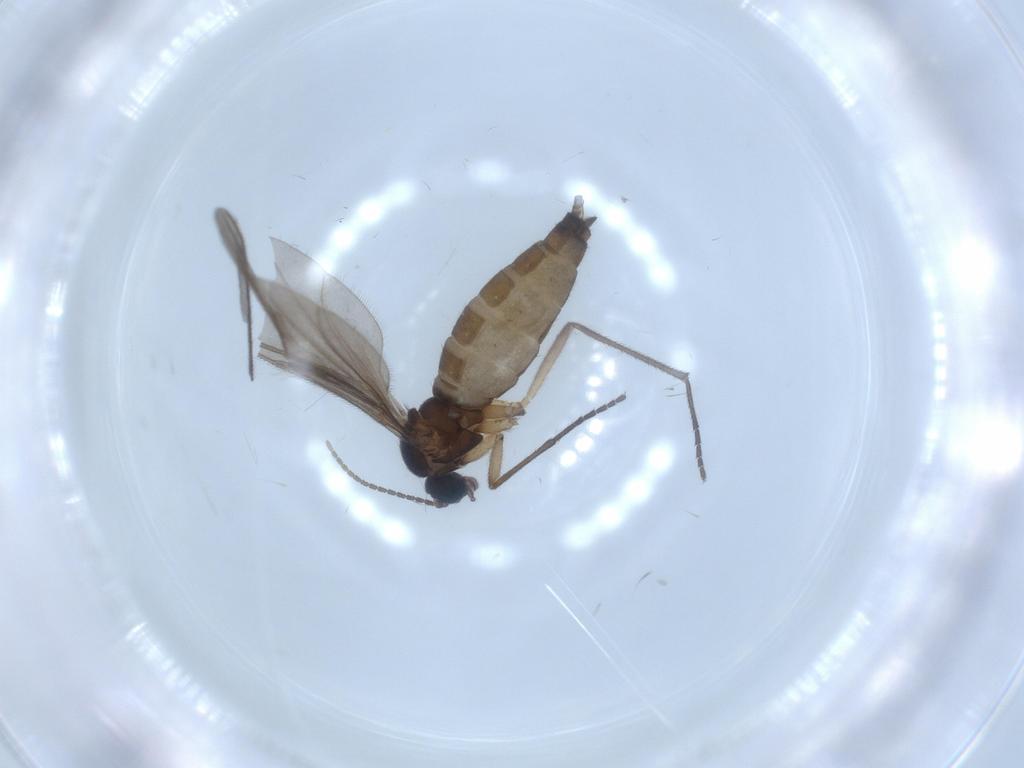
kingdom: Animalia
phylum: Arthropoda
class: Insecta
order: Diptera
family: Sciaridae
